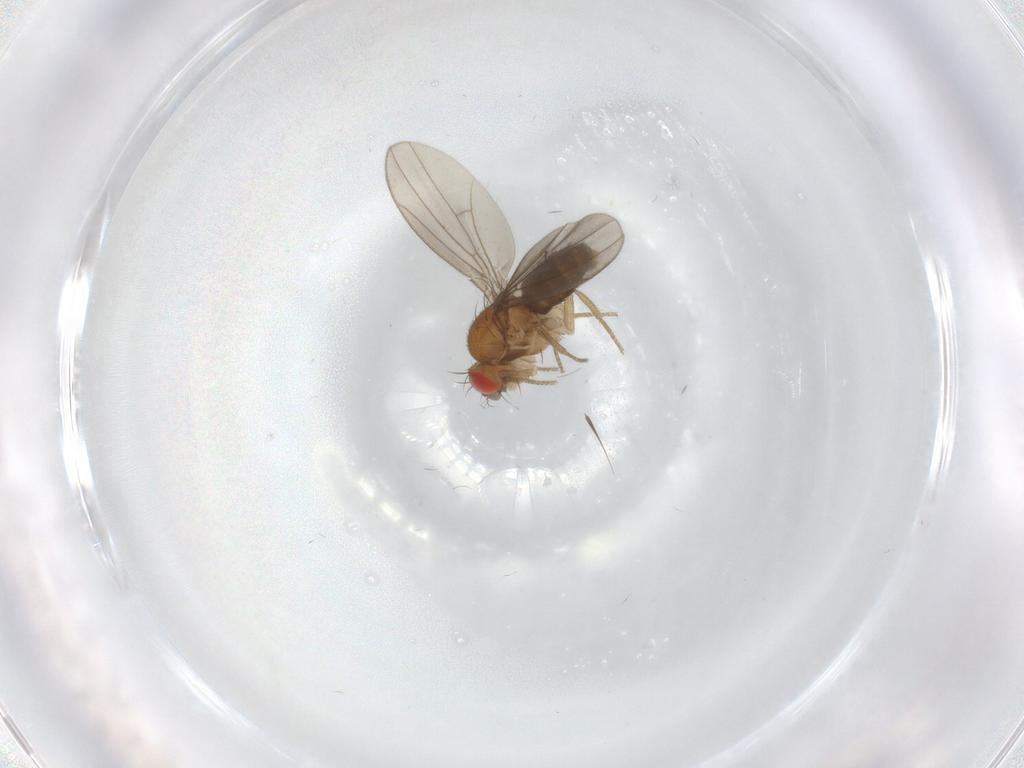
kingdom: Animalia
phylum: Arthropoda
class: Insecta
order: Diptera
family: Drosophilidae
